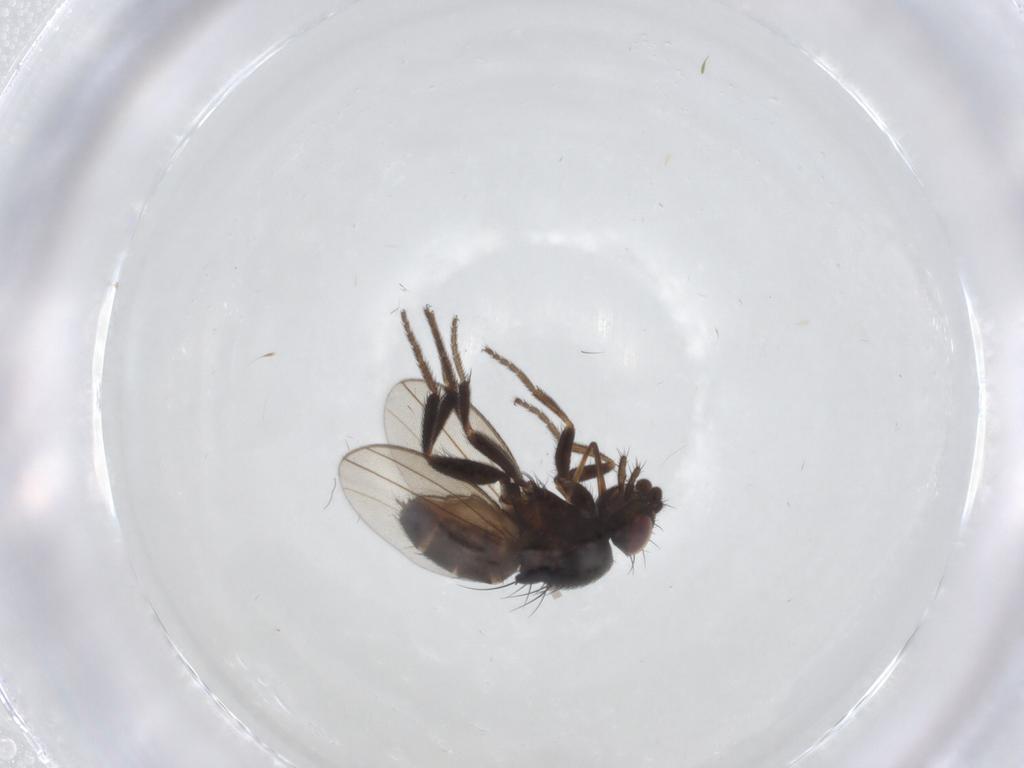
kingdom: Animalia
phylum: Arthropoda
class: Insecta
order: Diptera
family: Milichiidae
